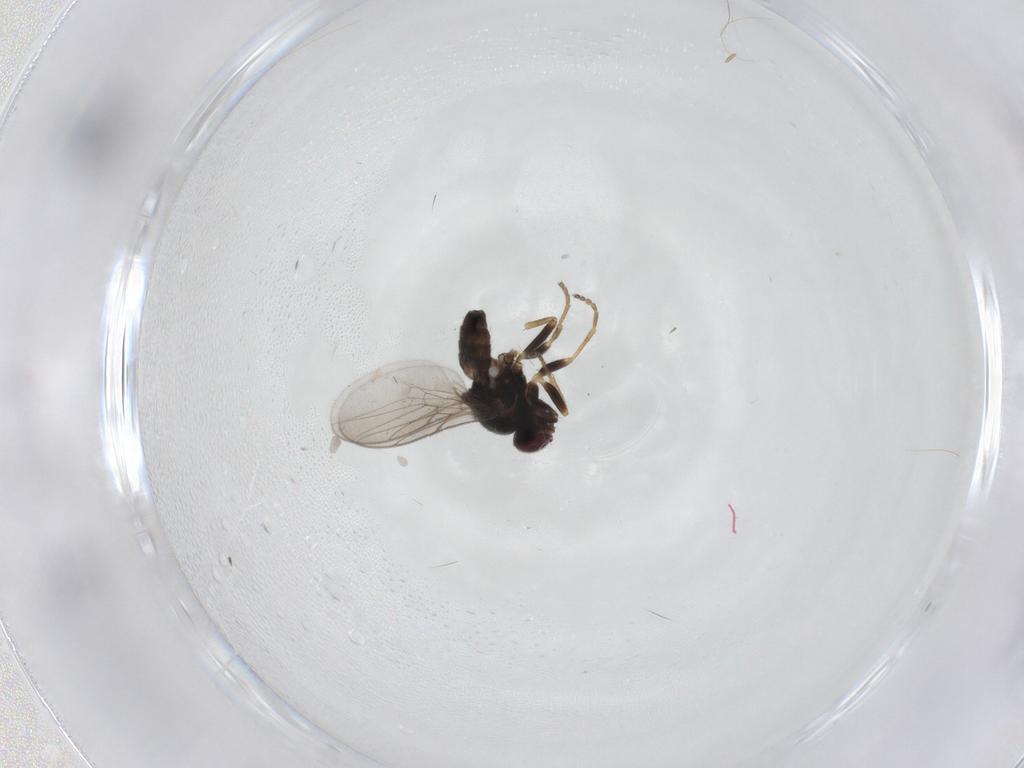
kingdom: Animalia
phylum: Arthropoda
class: Insecta
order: Diptera
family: Chloropidae
